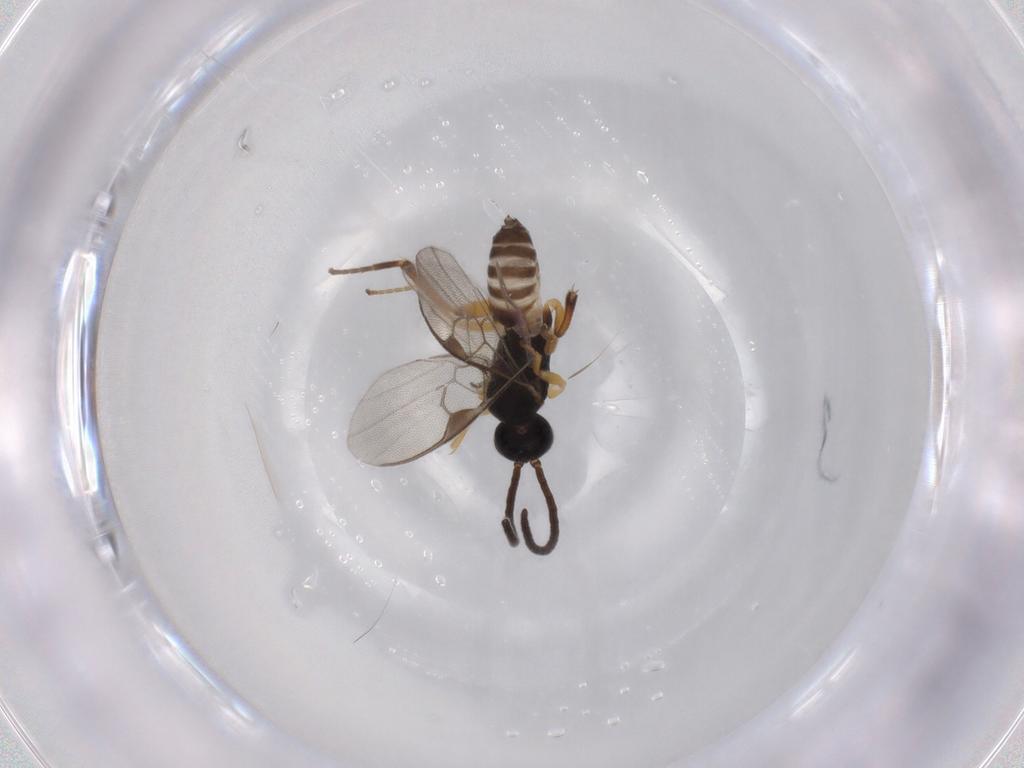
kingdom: Animalia
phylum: Arthropoda
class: Insecta
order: Hymenoptera
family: Braconidae
